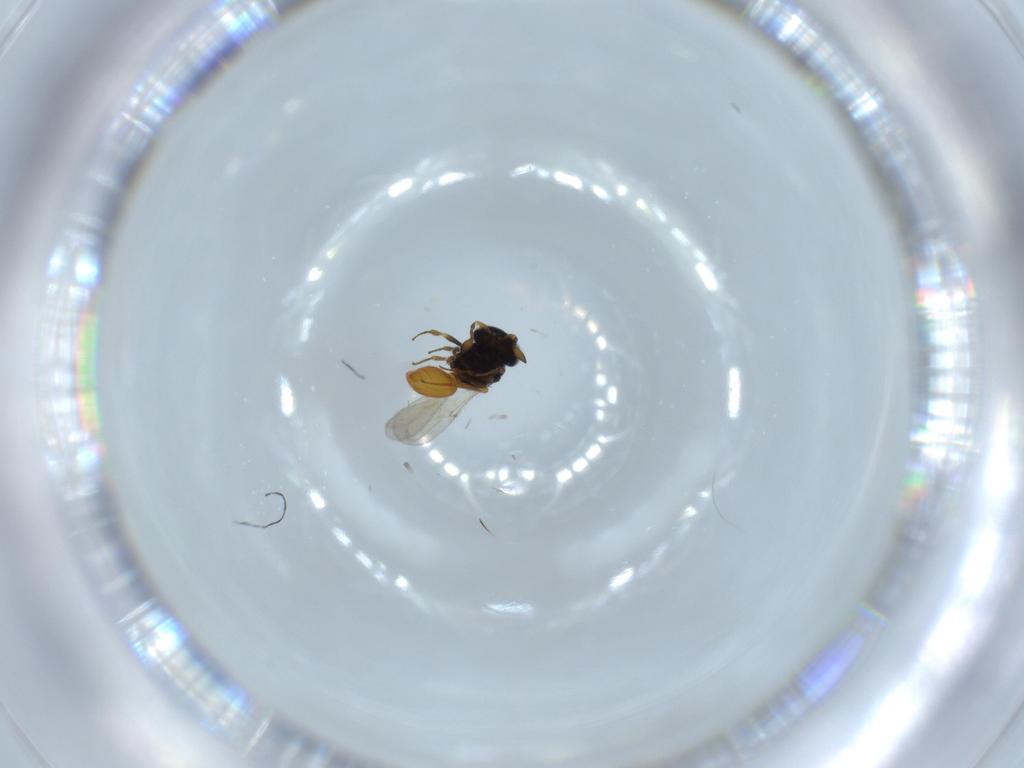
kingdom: Animalia
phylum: Arthropoda
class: Insecta
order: Hymenoptera
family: Scelionidae
